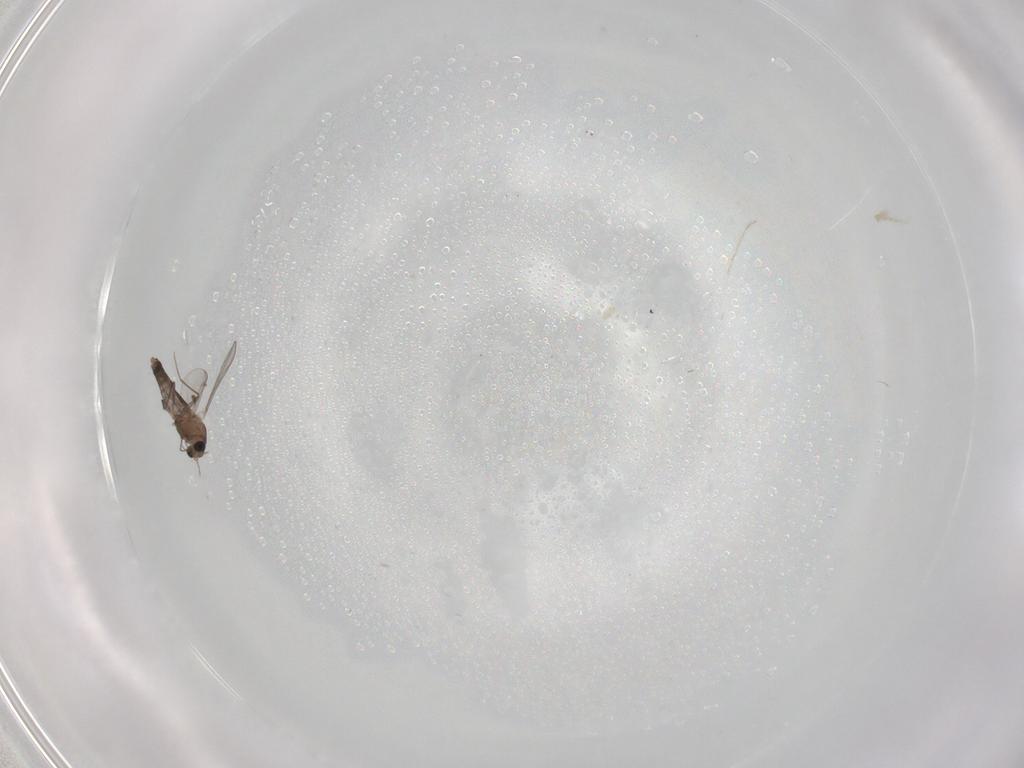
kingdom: Animalia
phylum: Arthropoda
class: Insecta
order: Diptera
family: Chironomidae
